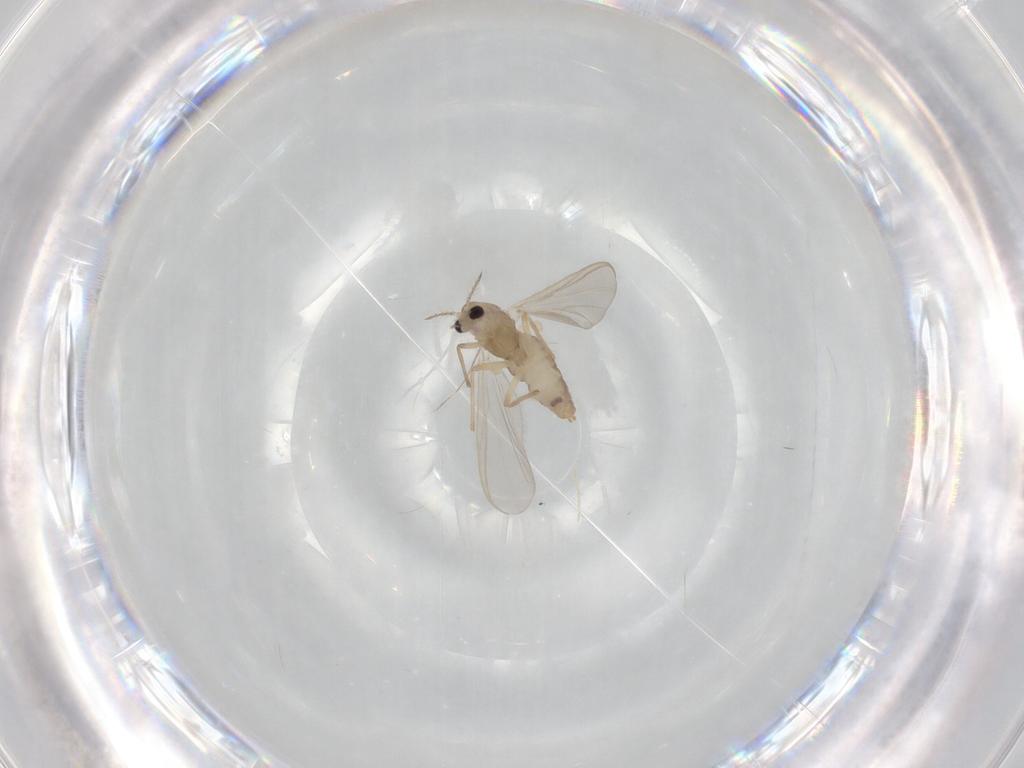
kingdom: Animalia
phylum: Arthropoda
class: Insecta
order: Diptera
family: Chironomidae
